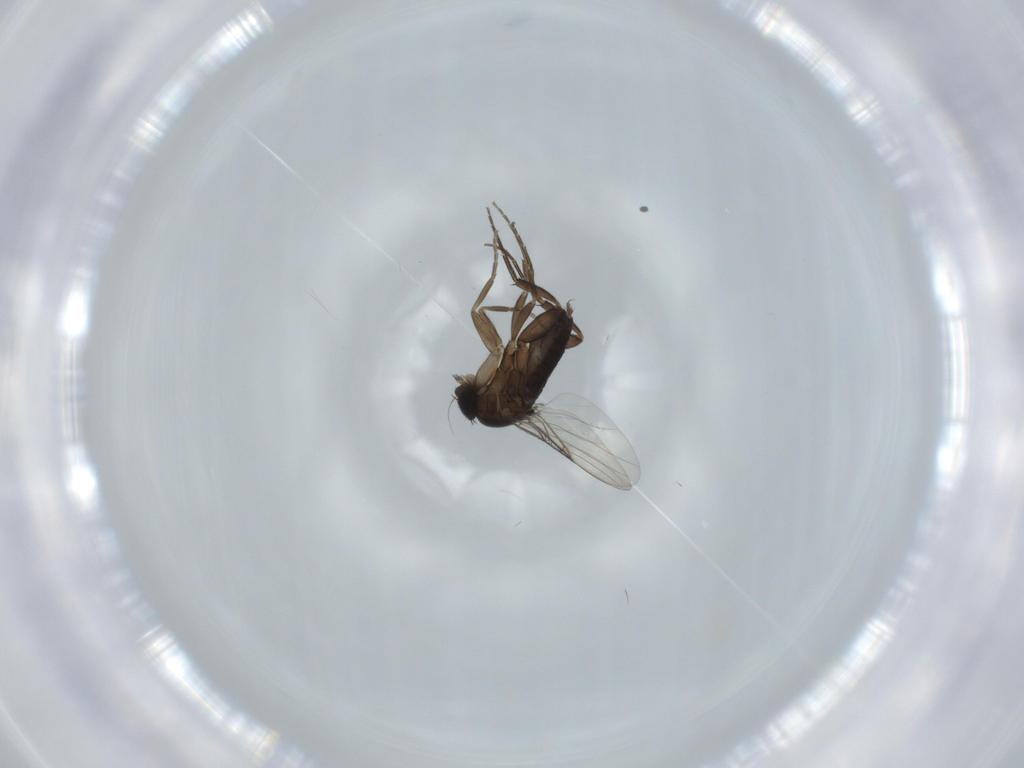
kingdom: Animalia
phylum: Arthropoda
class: Insecta
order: Diptera
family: Phoridae
